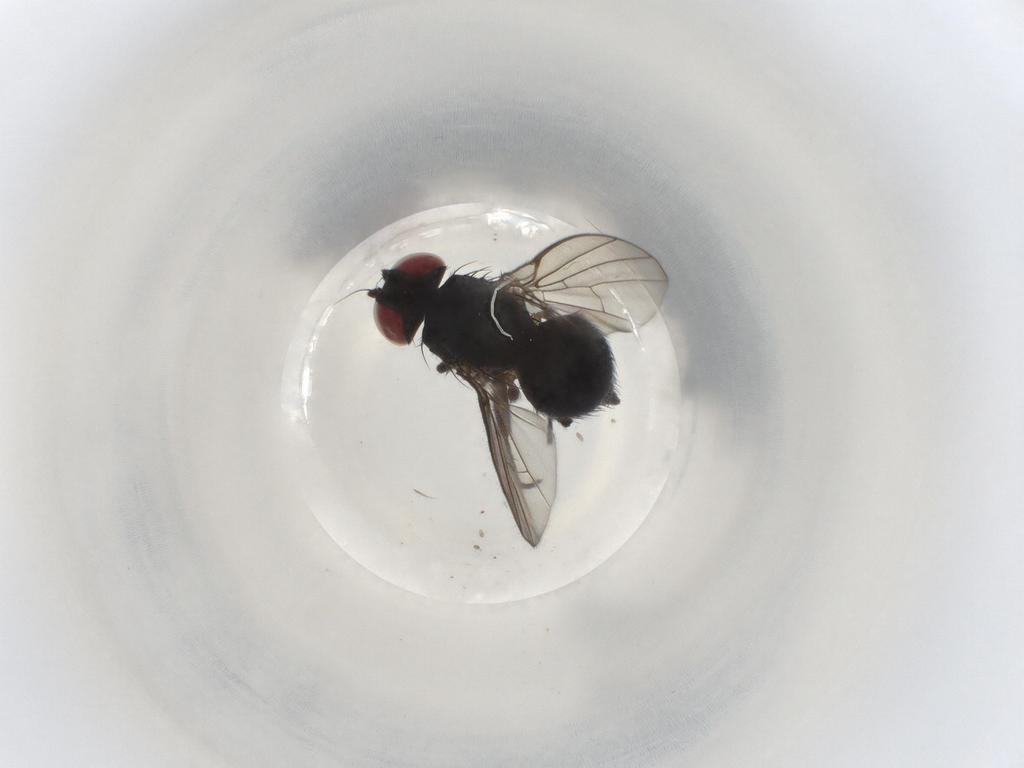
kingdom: Animalia
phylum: Arthropoda
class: Insecta
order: Diptera
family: Agromyzidae
